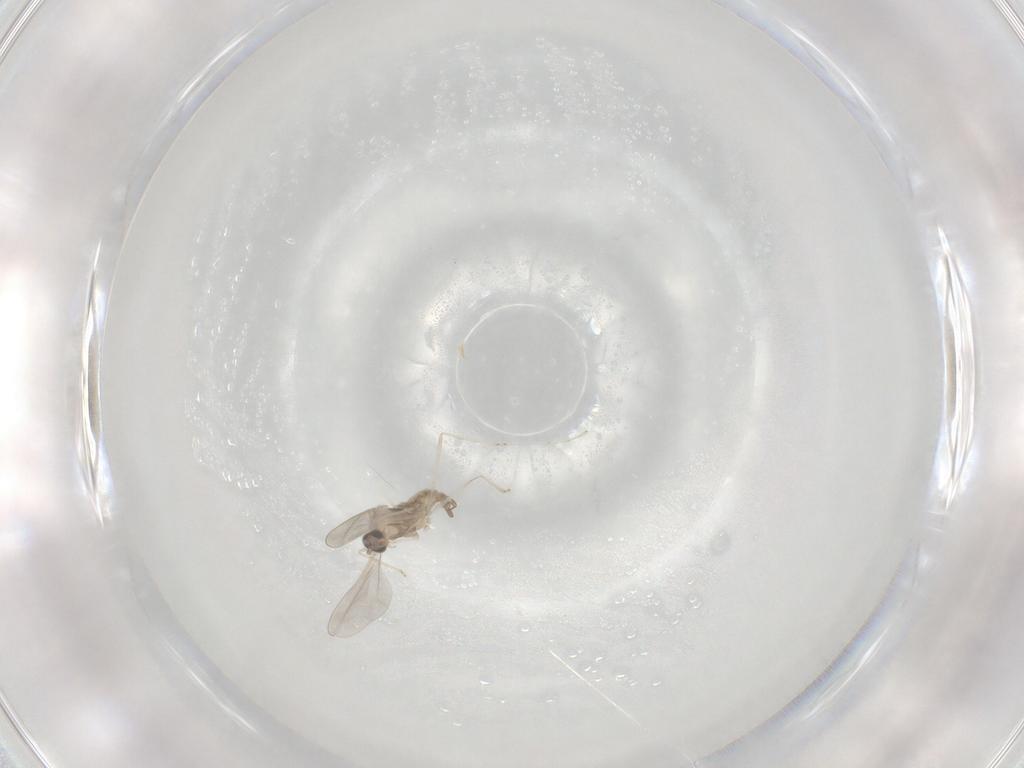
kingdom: Animalia
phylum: Arthropoda
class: Insecta
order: Diptera
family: Cecidomyiidae
